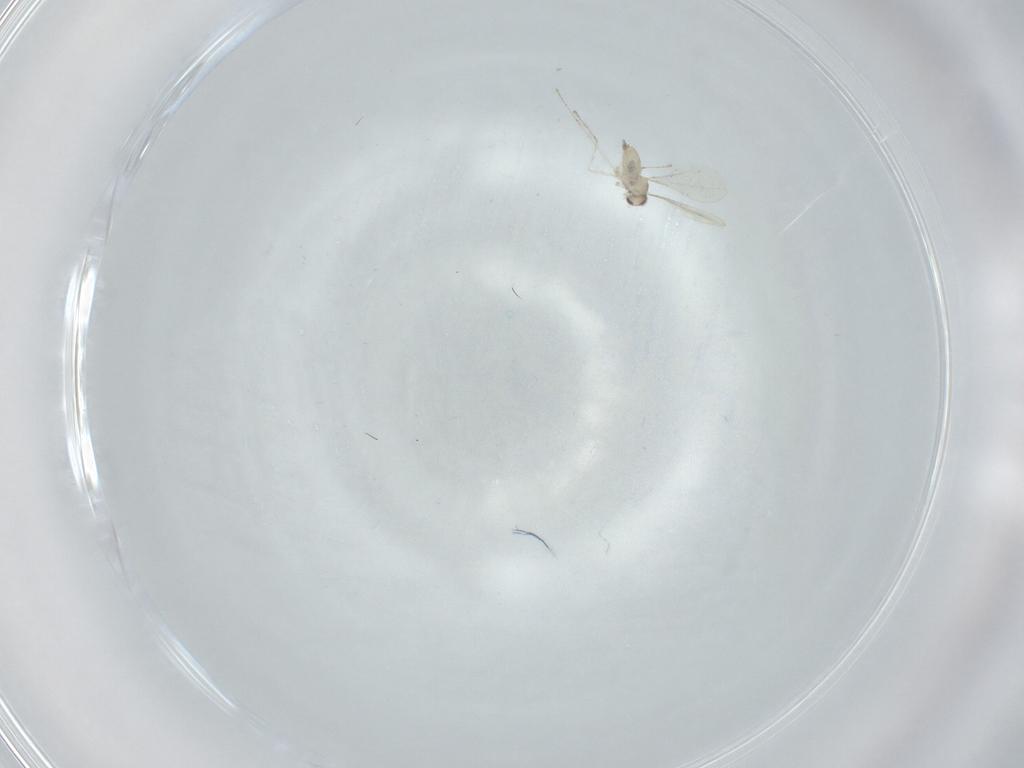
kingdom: Animalia
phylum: Arthropoda
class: Insecta
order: Diptera
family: Cecidomyiidae
